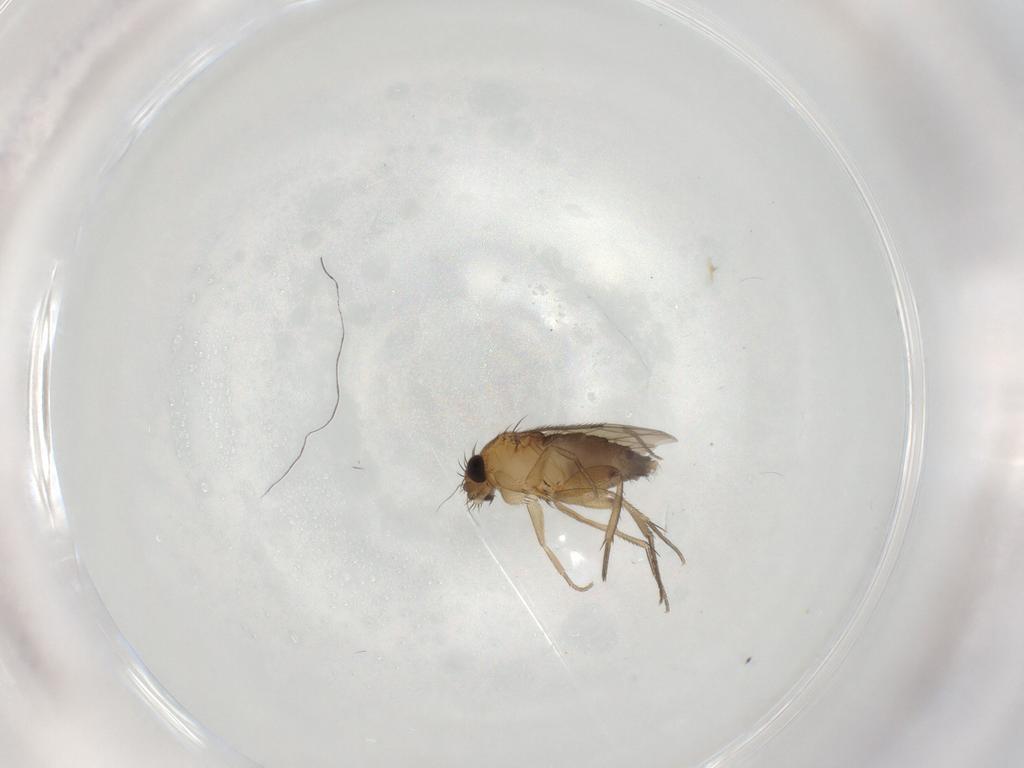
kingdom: Animalia
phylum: Arthropoda
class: Insecta
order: Diptera
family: Phoridae
